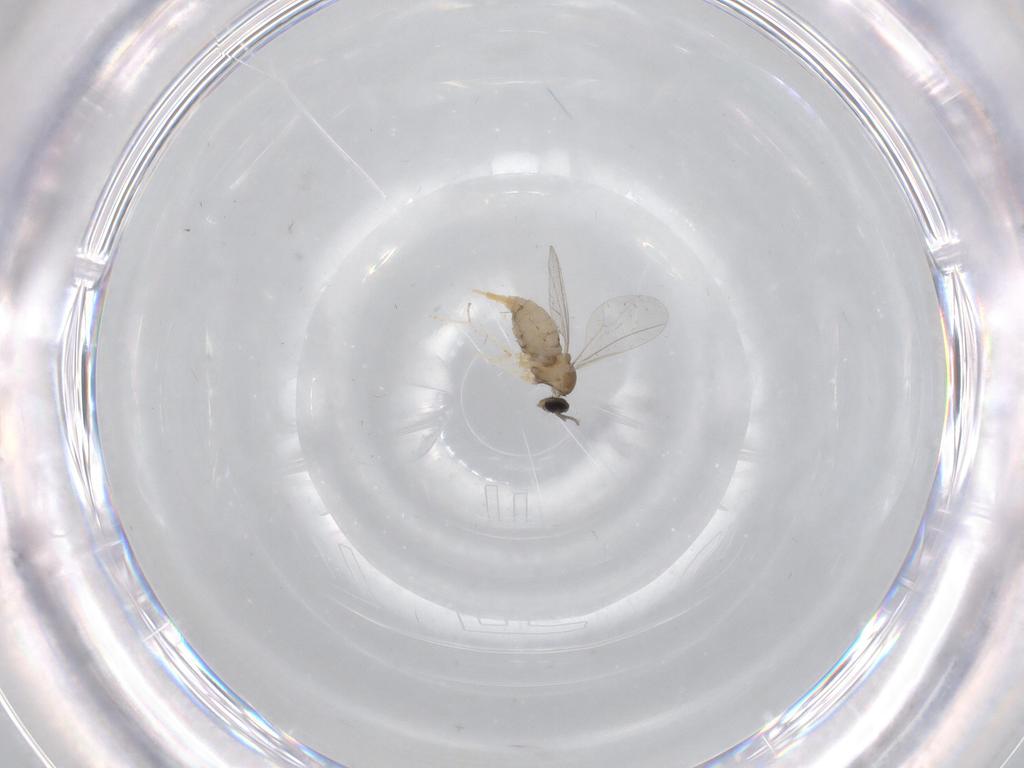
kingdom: Animalia
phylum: Arthropoda
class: Insecta
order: Diptera
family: Cecidomyiidae
